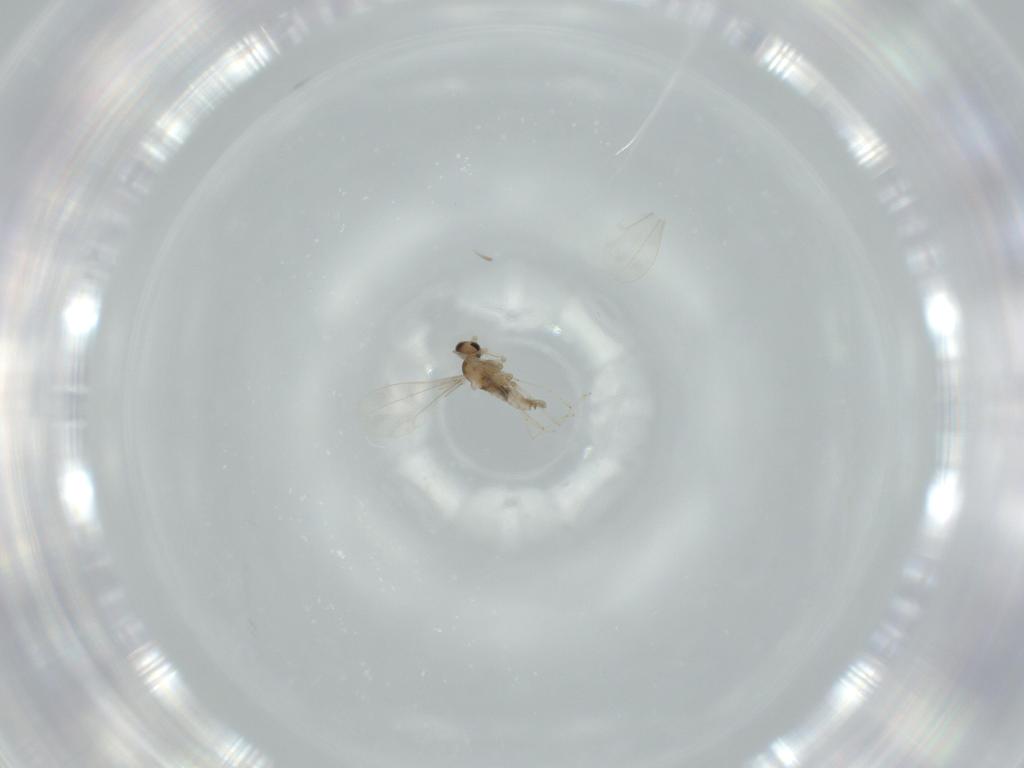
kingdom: Animalia
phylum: Arthropoda
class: Insecta
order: Diptera
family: Cecidomyiidae
